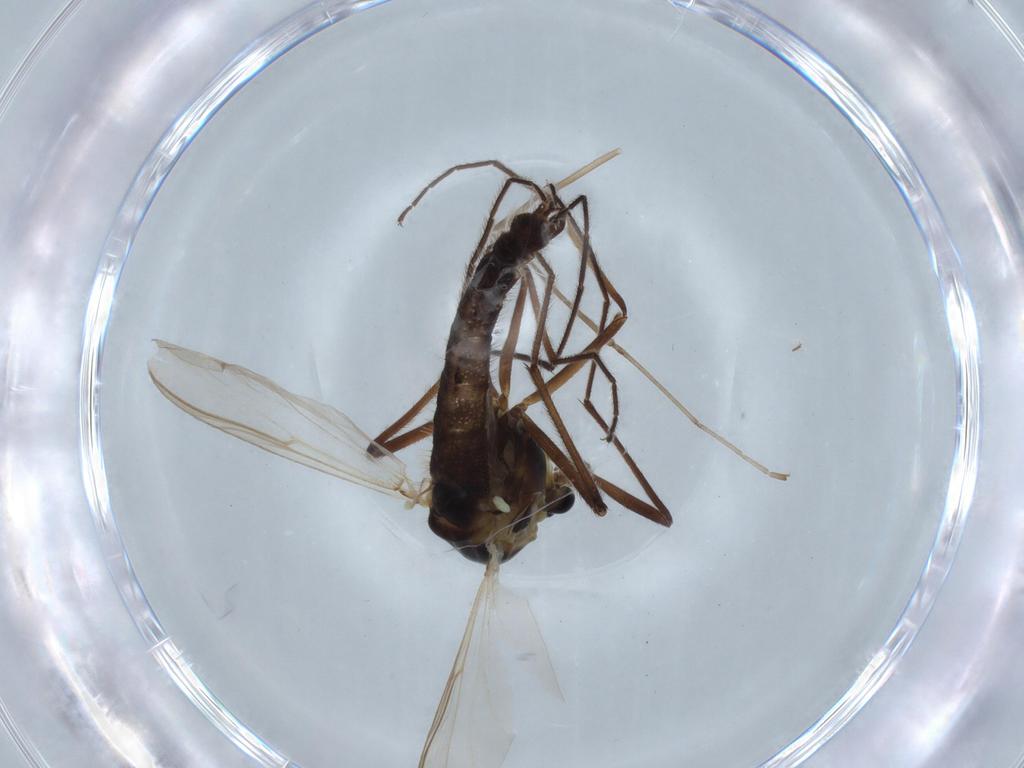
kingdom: Animalia
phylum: Arthropoda
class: Insecta
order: Diptera
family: Chironomidae
